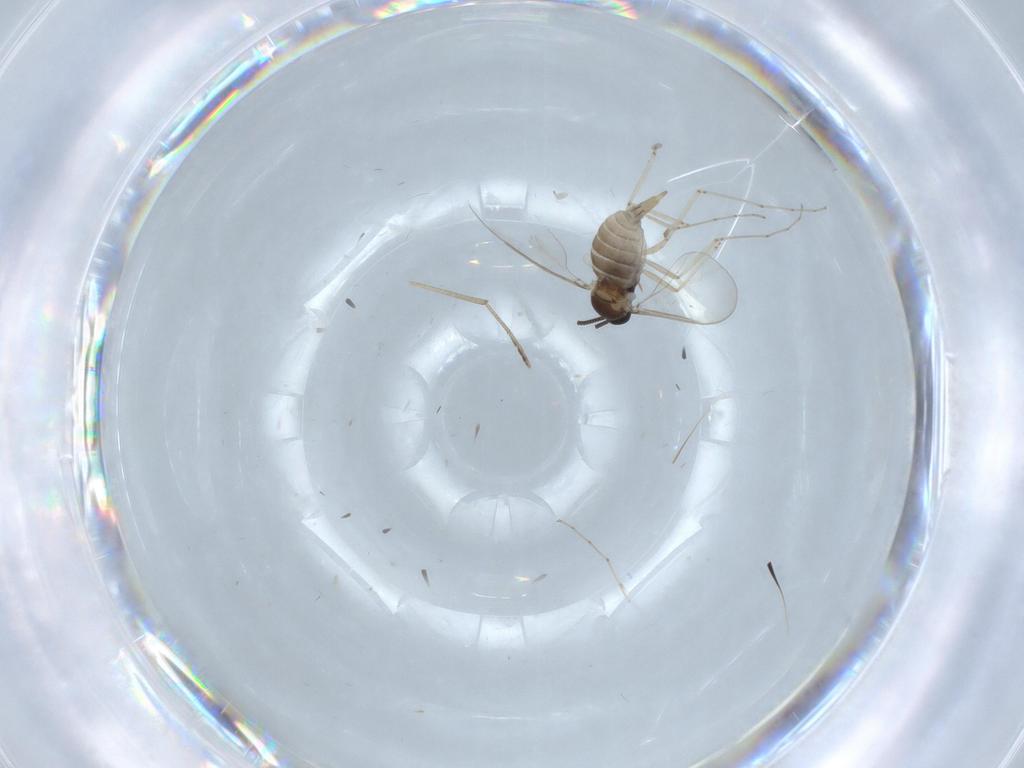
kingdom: Animalia
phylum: Arthropoda
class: Insecta
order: Diptera
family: Cecidomyiidae
